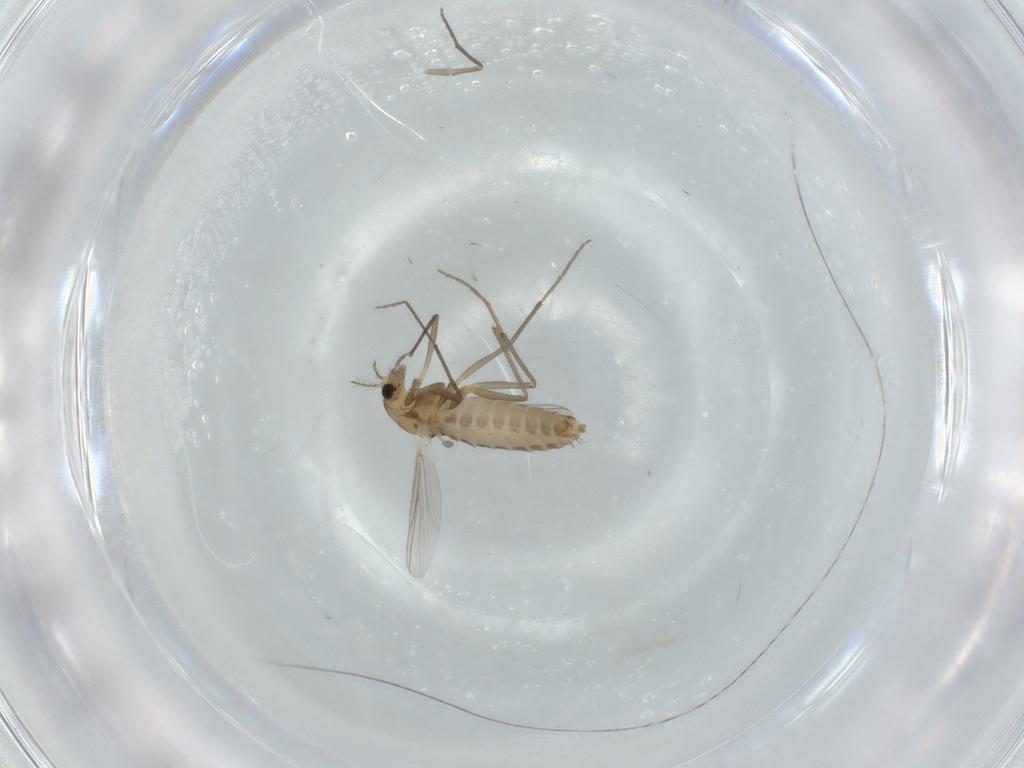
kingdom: Animalia
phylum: Arthropoda
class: Insecta
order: Diptera
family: Chironomidae
